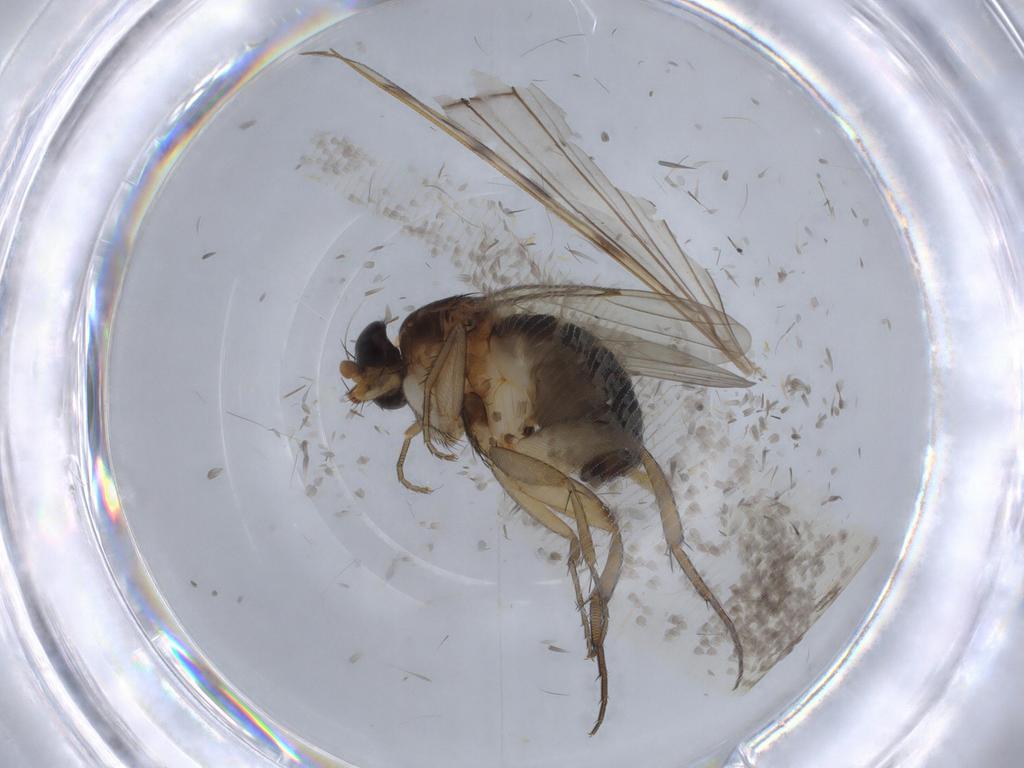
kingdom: Animalia
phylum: Arthropoda
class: Insecta
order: Diptera
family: Phoridae
